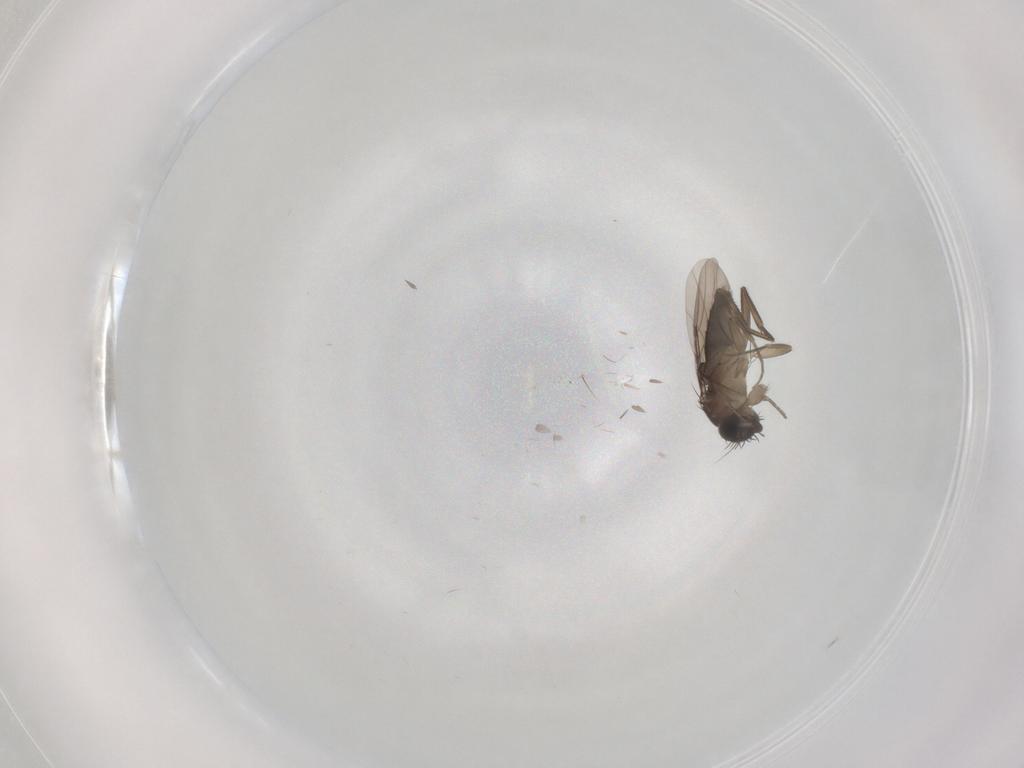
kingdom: Animalia
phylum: Arthropoda
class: Insecta
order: Diptera
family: Phoridae
